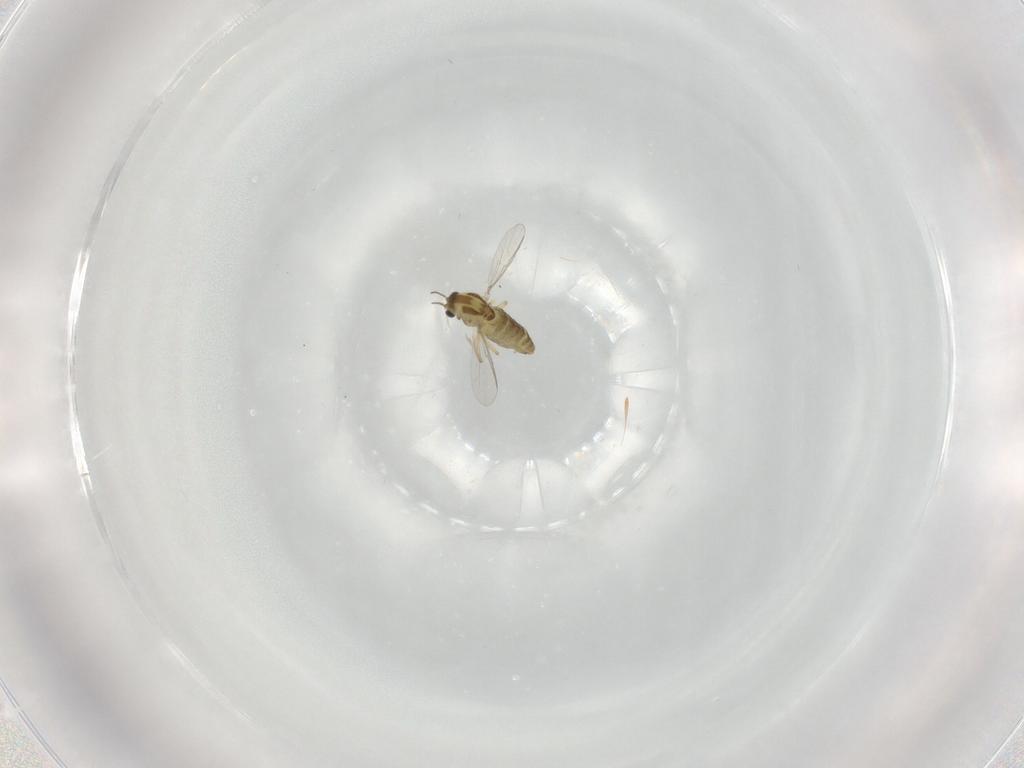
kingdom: Animalia
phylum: Arthropoda
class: Insecta
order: Diptera
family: Chironomidae
